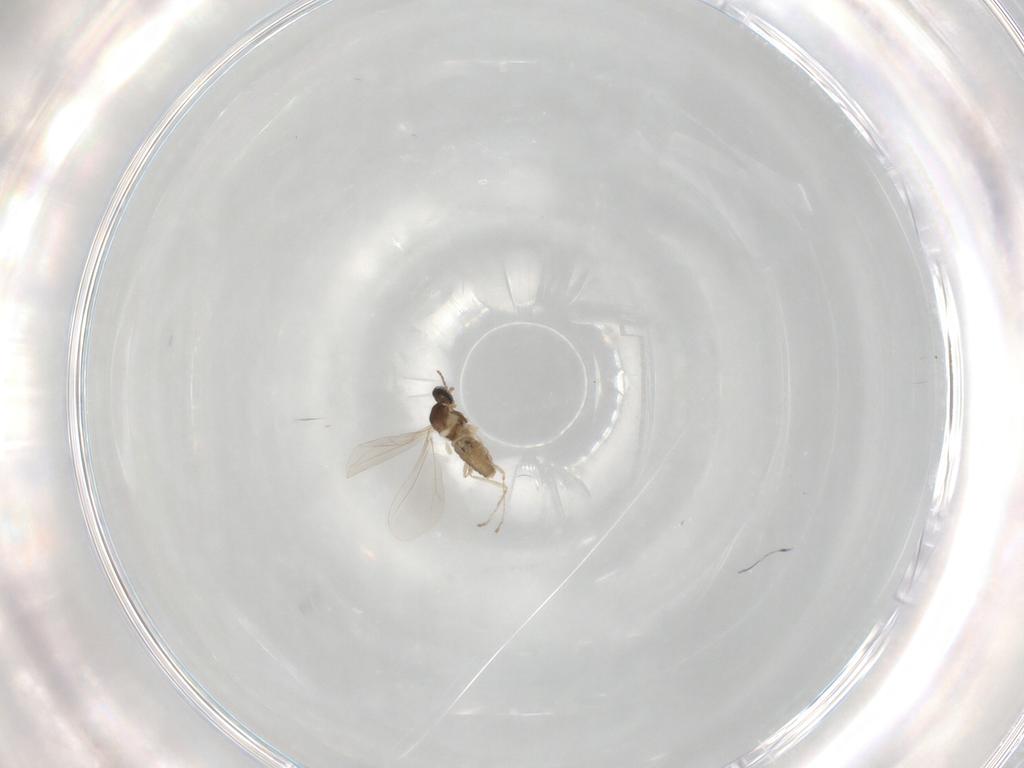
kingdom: Animalia
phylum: Arthropoda
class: Insecta
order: Diptera
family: Cecidomyiidae
